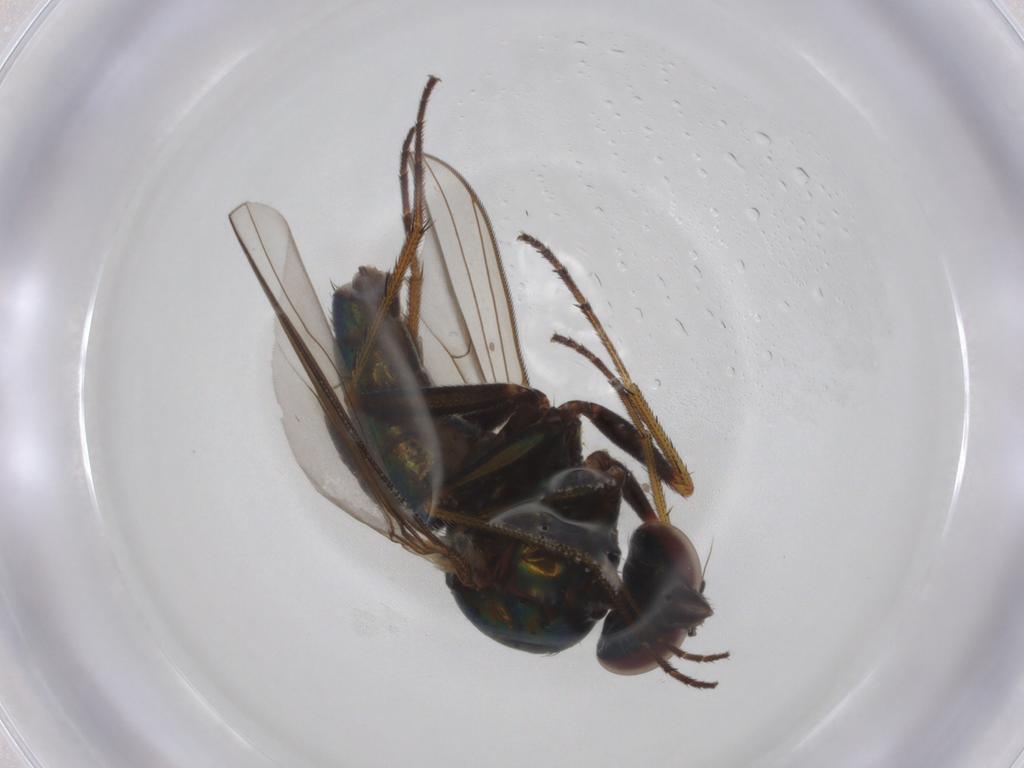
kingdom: Animalia
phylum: Arthropoda
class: Insecta
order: Diptera
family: Dolichopodidae
